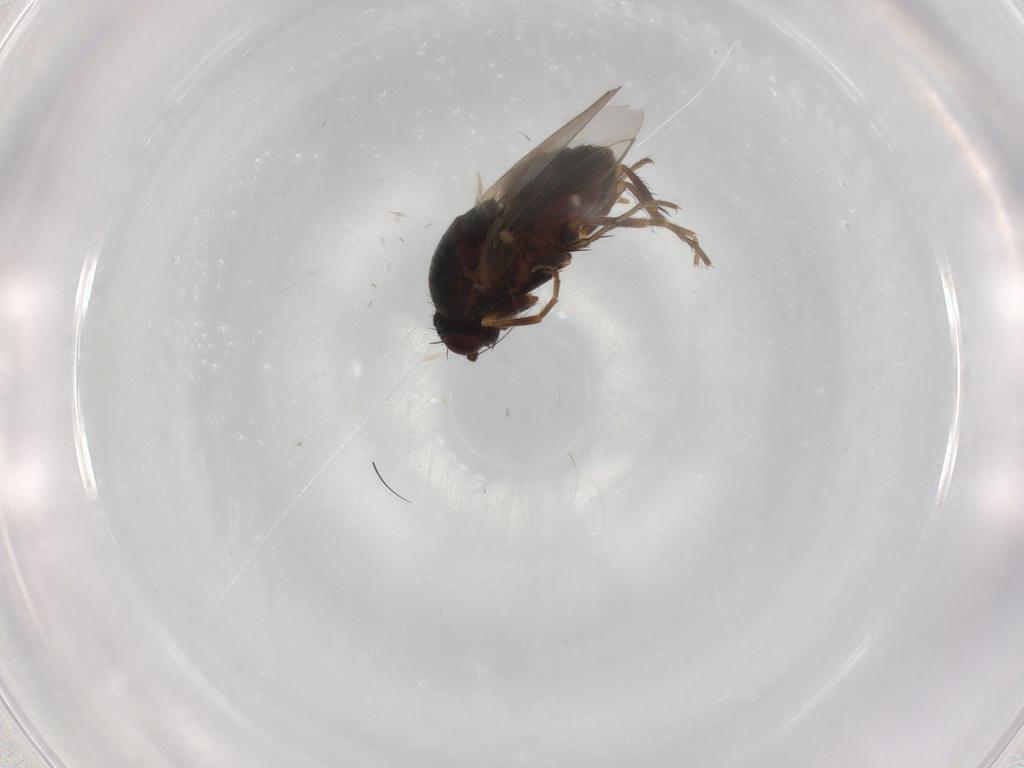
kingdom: Animalia
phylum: Arthropoda
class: Insecta
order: Diptera
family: Sphaeroceridae
